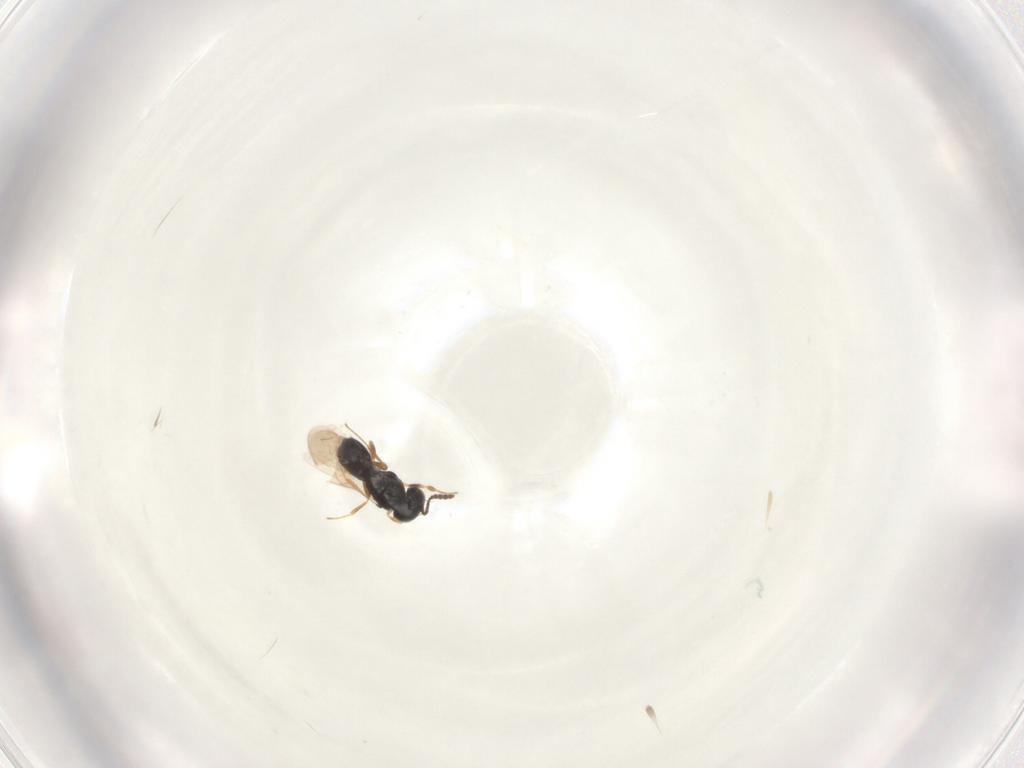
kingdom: Animalia
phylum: Arthropoda
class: Insecta
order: Hymenoptera
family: Scelionidae
